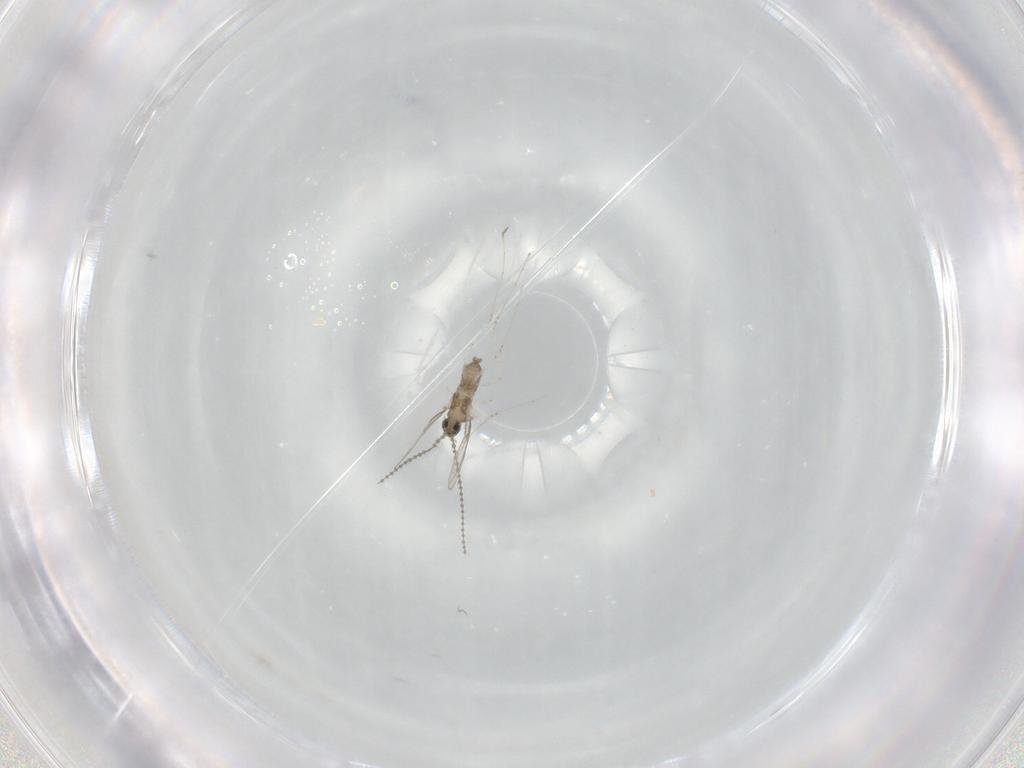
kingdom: Animalia
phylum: Arthropoda
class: Insecta
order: Diptera
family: Cecidomyiidae
